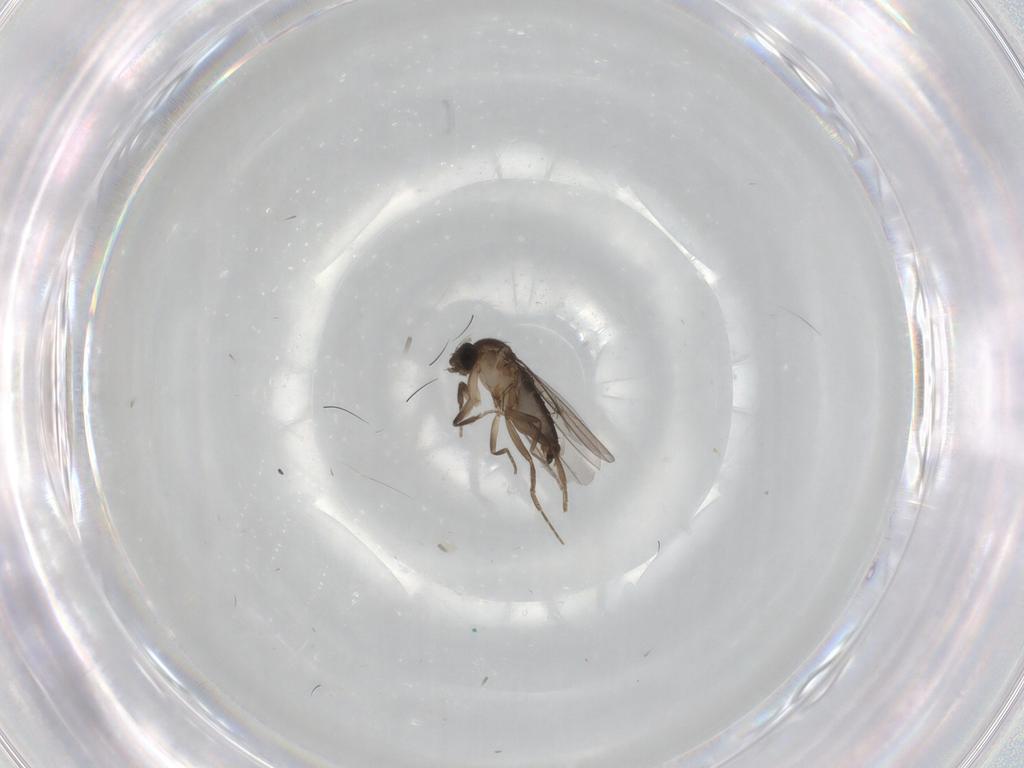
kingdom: Animalia
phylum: Arthropoda
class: Insecta
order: Diptera
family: Phoridae
